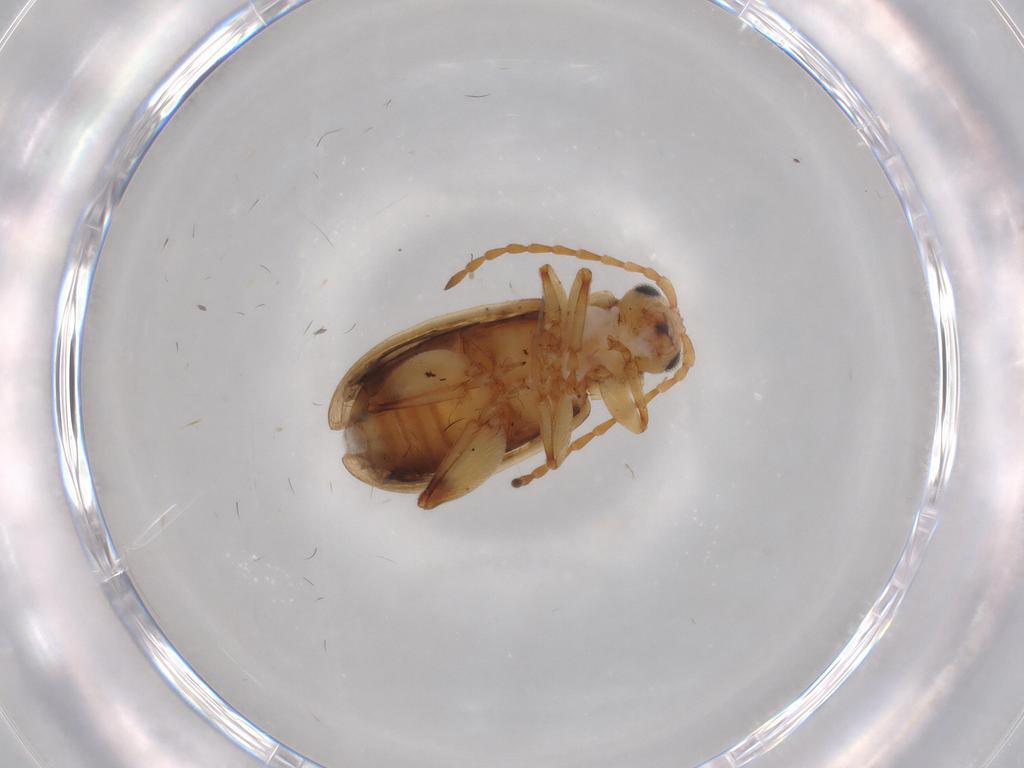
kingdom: Animalia
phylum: Arthropoda
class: Insecta
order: Coleoptera
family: Chrysomelidae
